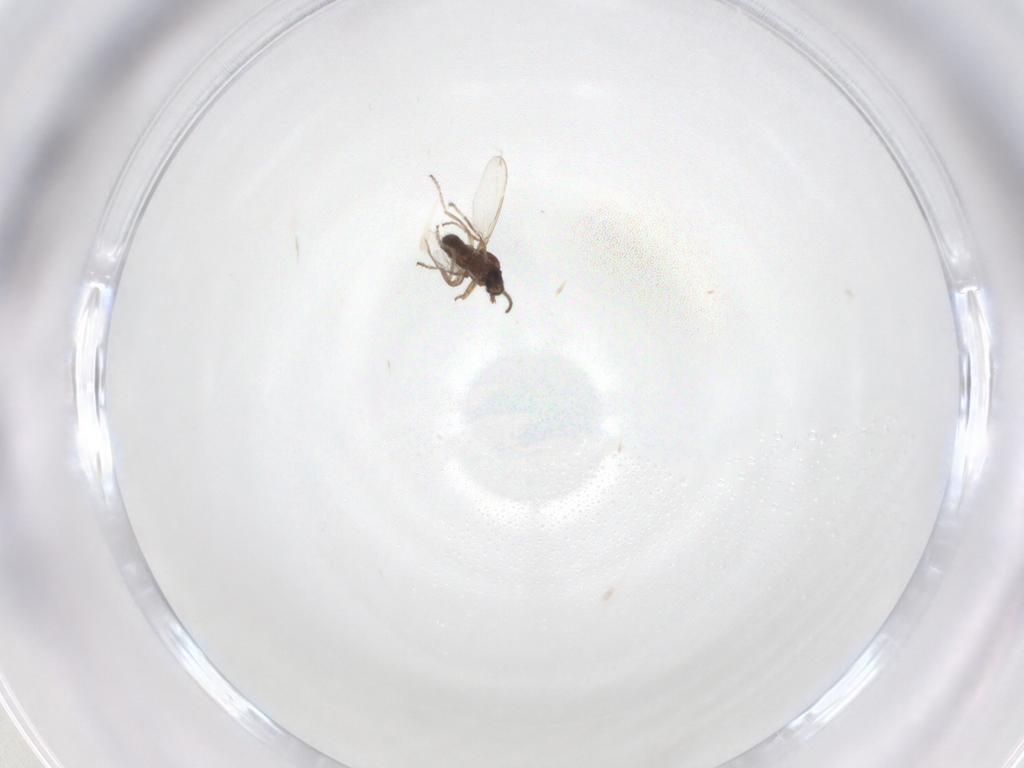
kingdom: Animalia
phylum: Arthropoda
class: Insecta
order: Diptera
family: Ceratopogonidae
